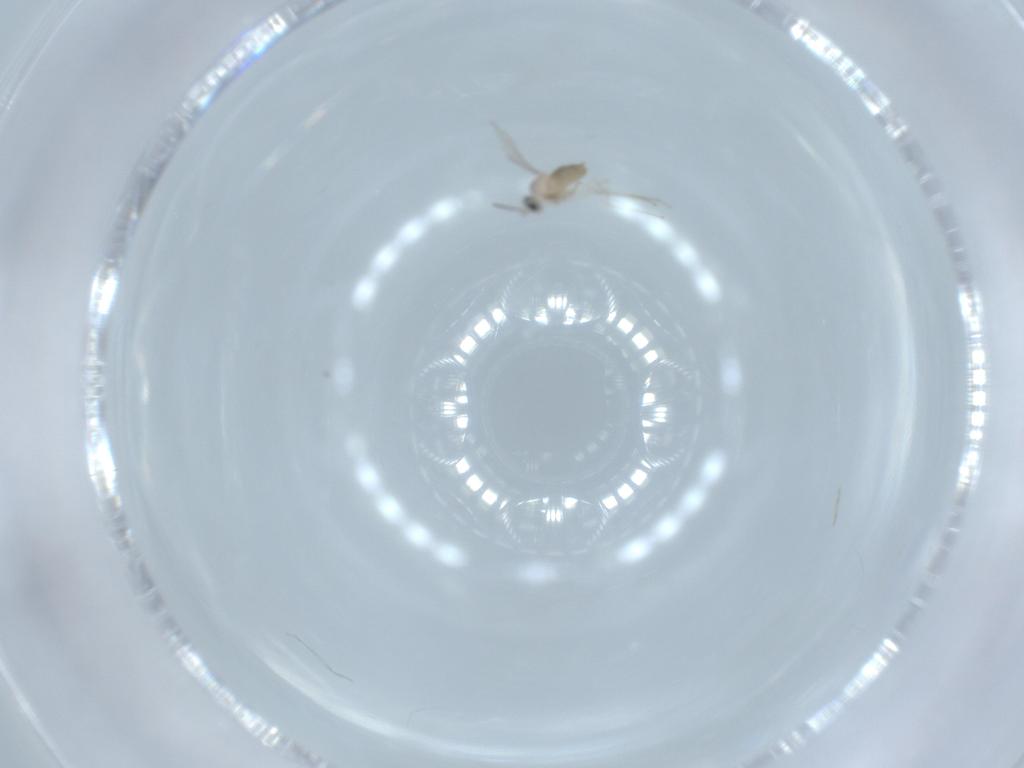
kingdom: Animalia
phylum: Arthropoda
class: Insecta
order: Diptera
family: Cecidomyiidae
